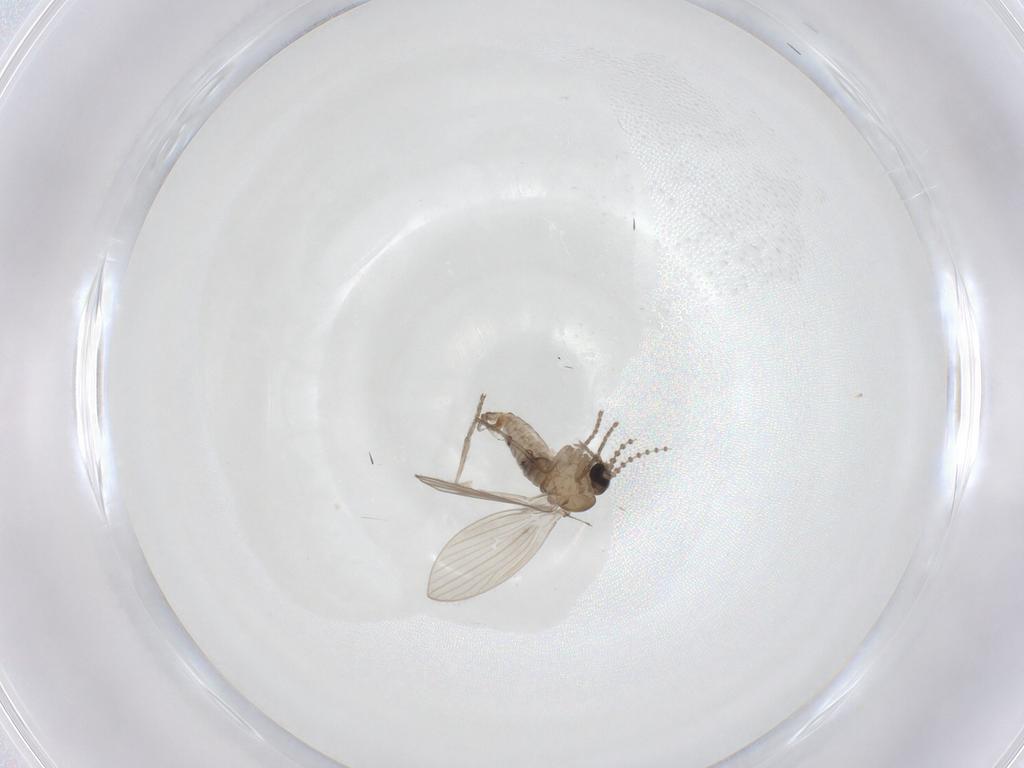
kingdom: Animalia
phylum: Arthropoda
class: Insecta
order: Diptera
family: Psychodidae
